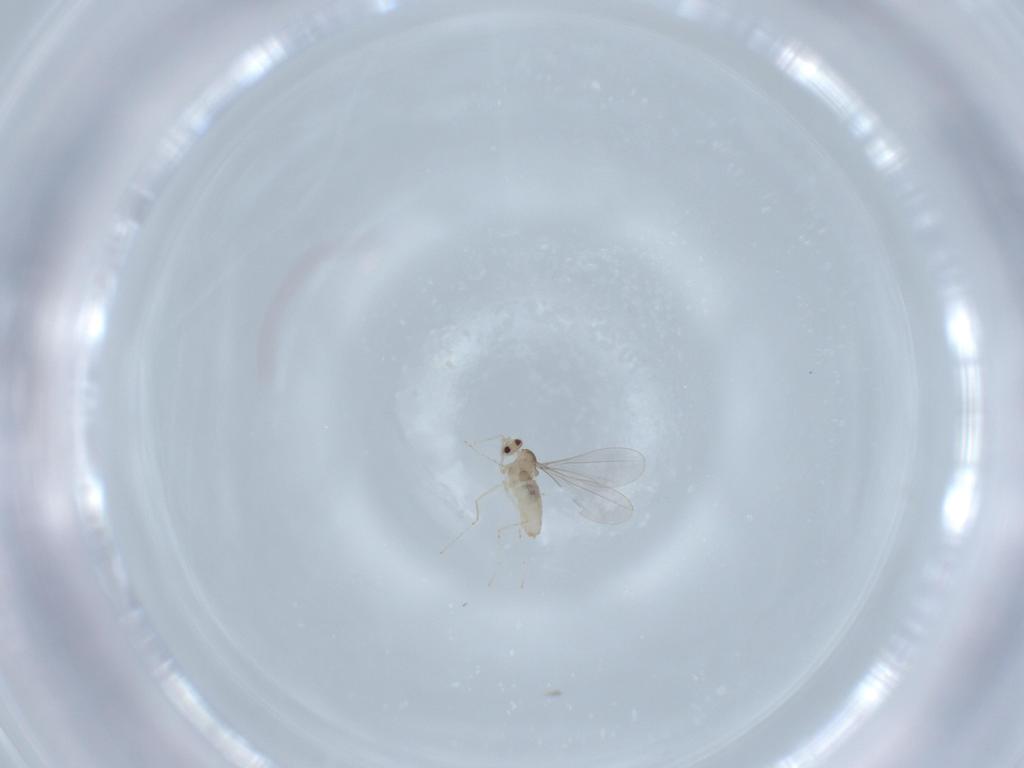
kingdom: Animalia
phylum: Arthropoda
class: Insecta
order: Diptera
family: Cecidomyiidae
